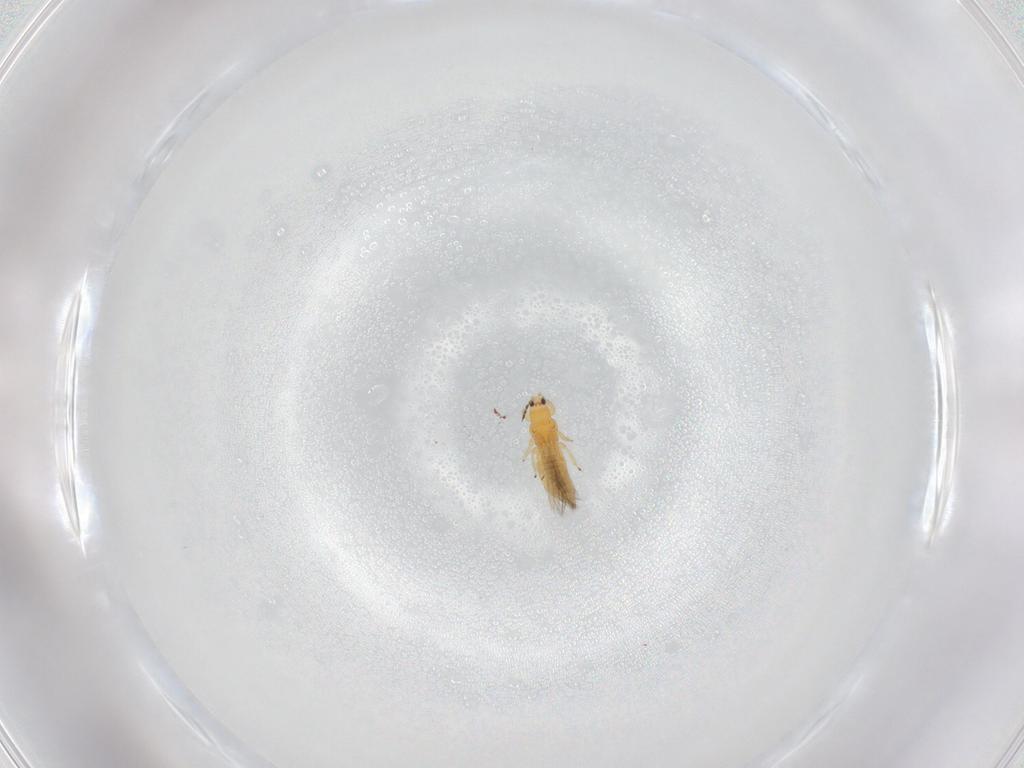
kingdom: Animalia
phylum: Arthropoda
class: Insecta
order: Thysanoptera
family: Thripidae
